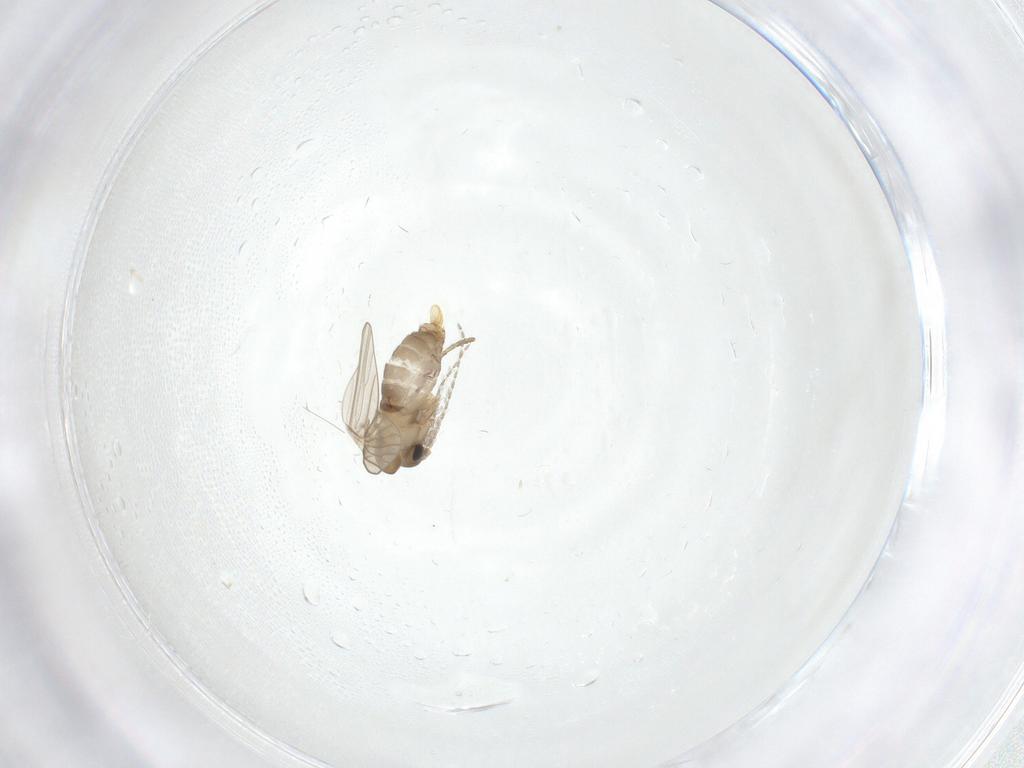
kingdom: Animalia
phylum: Arthropoda
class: Insecta
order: Diptera
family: Psychodidae
